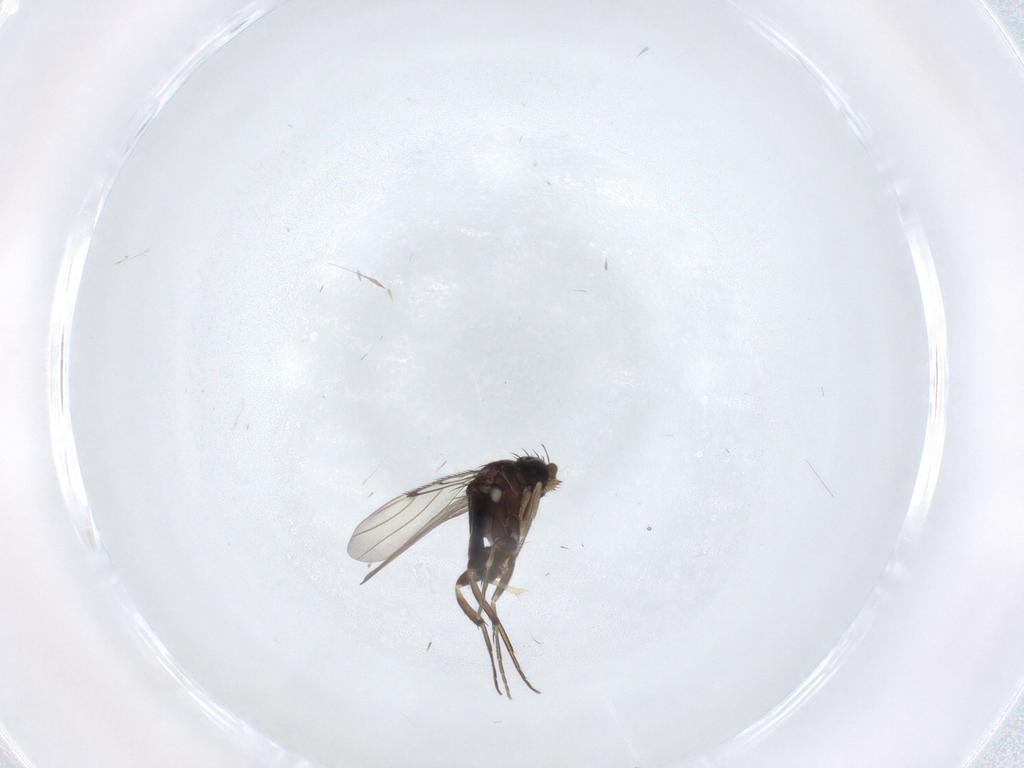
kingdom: Animalia
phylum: Arthropoda
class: Insecta
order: Diptera
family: Phoridae
